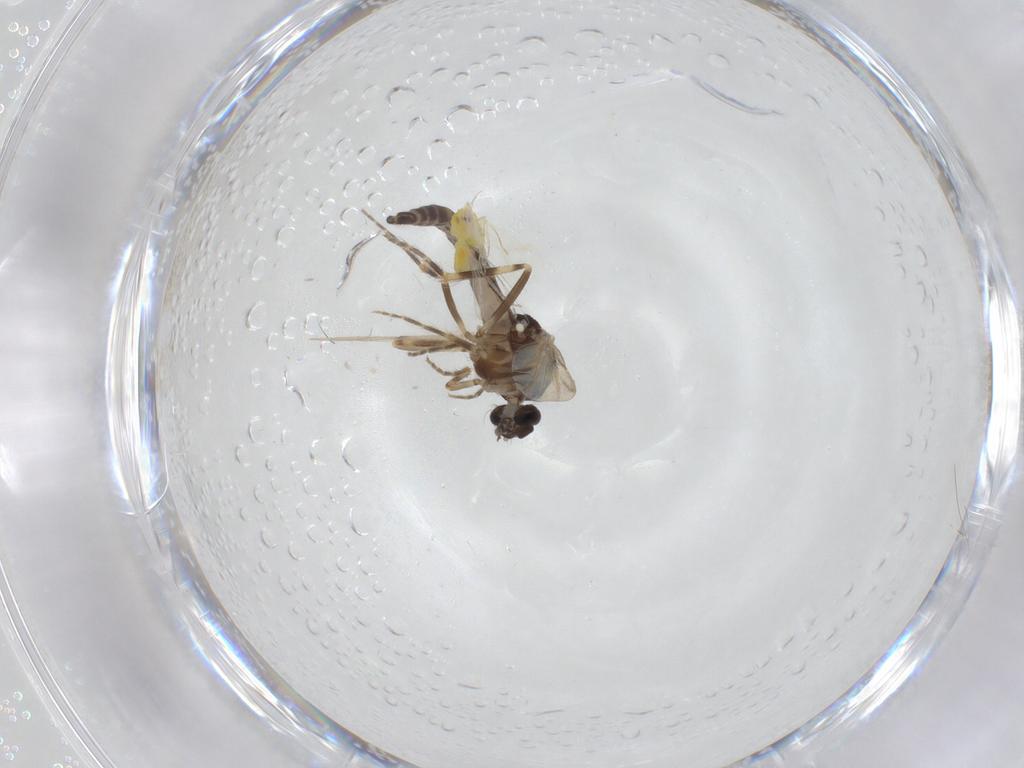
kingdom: Animalia
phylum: Arthropoda
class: Insecta
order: Diptera
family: Ceratopogonidae
